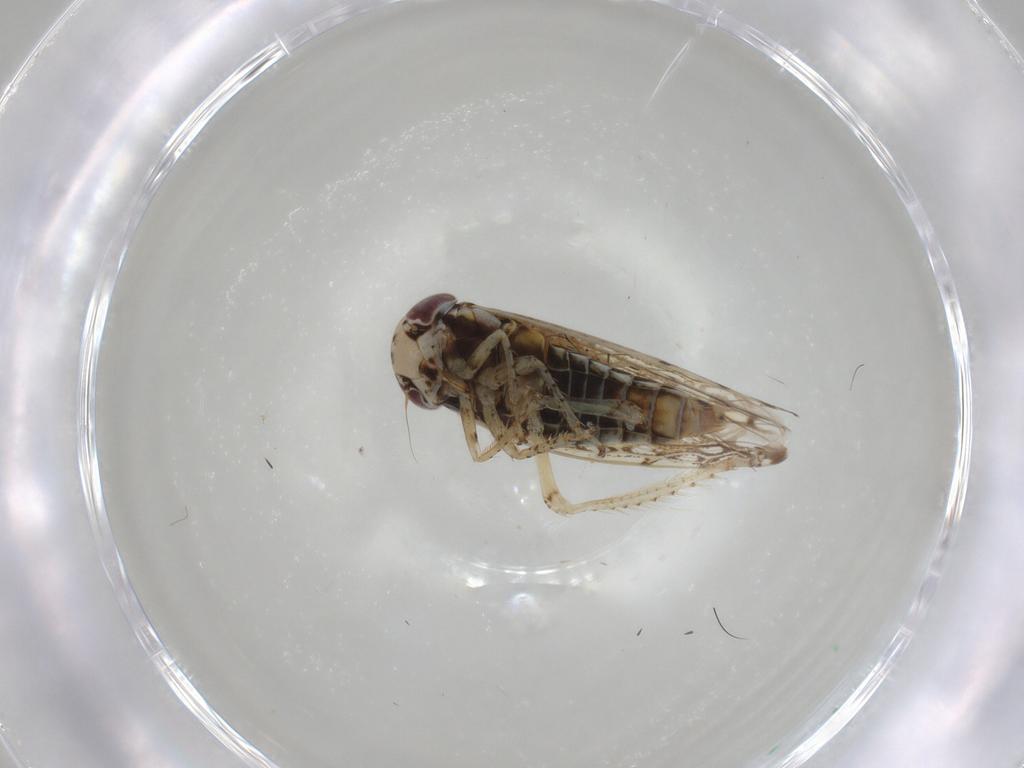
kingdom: Animalia
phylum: Arthropoda
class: Insecta
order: Hemiptera
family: Cicadellidae
